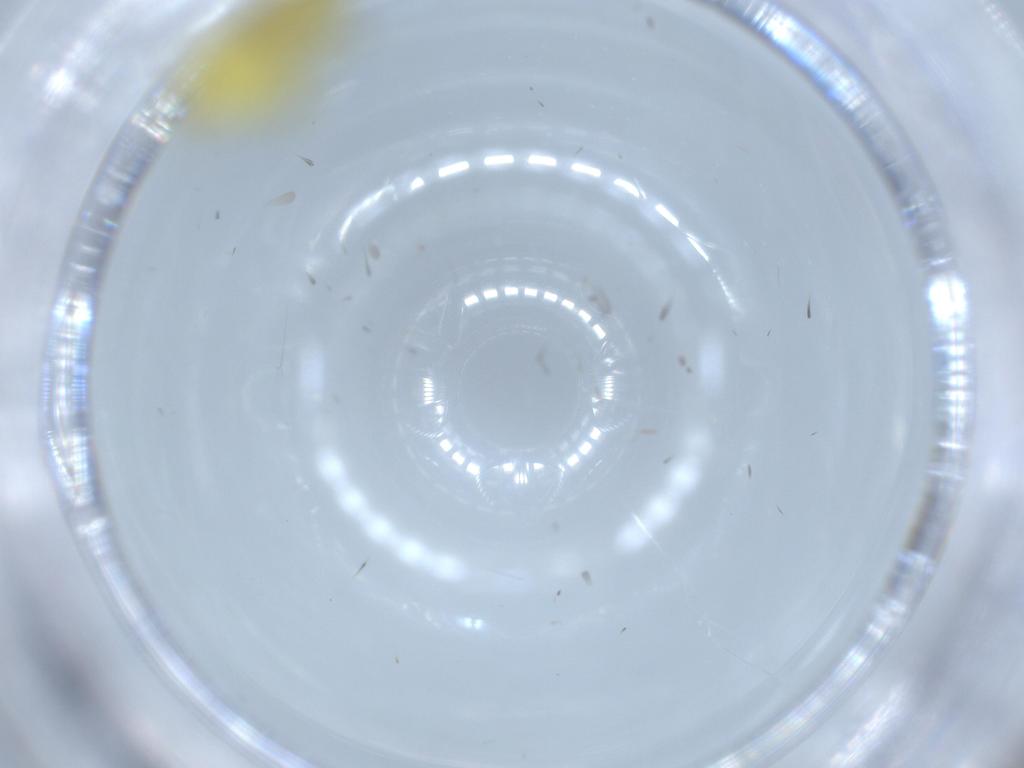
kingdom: Animalia
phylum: Arthropoda
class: Insecta
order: Hemiptera
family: Cicadellidae
